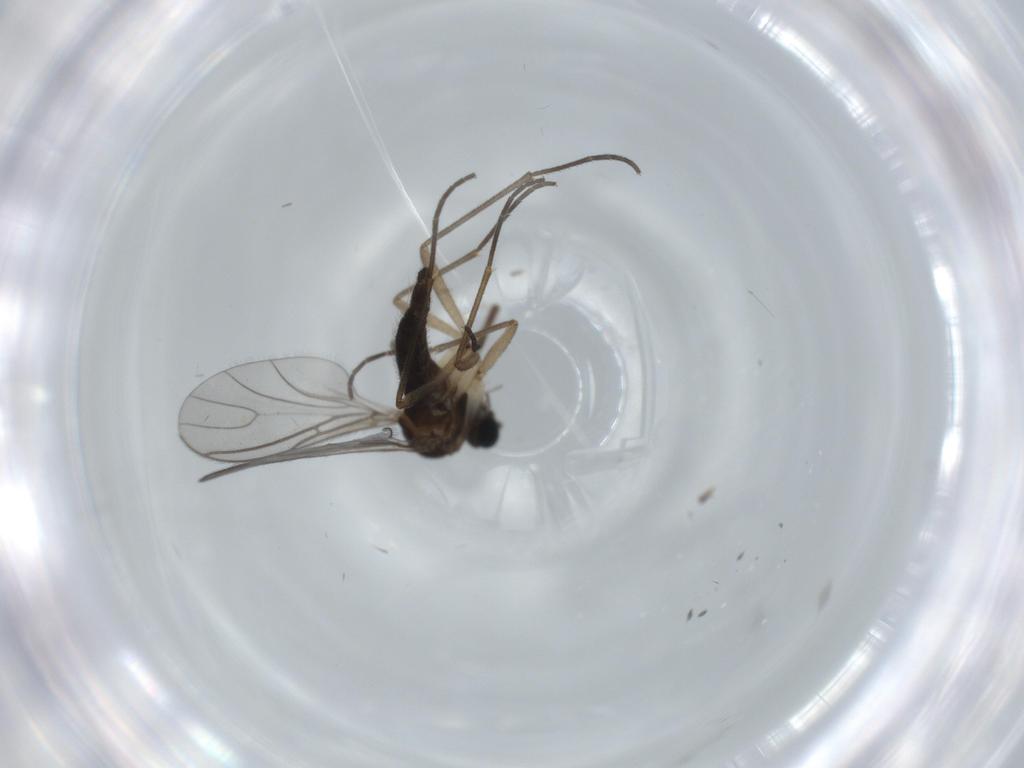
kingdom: Animalia
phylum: Arthropoda
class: Insecta
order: Diptera
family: Sciaridae
